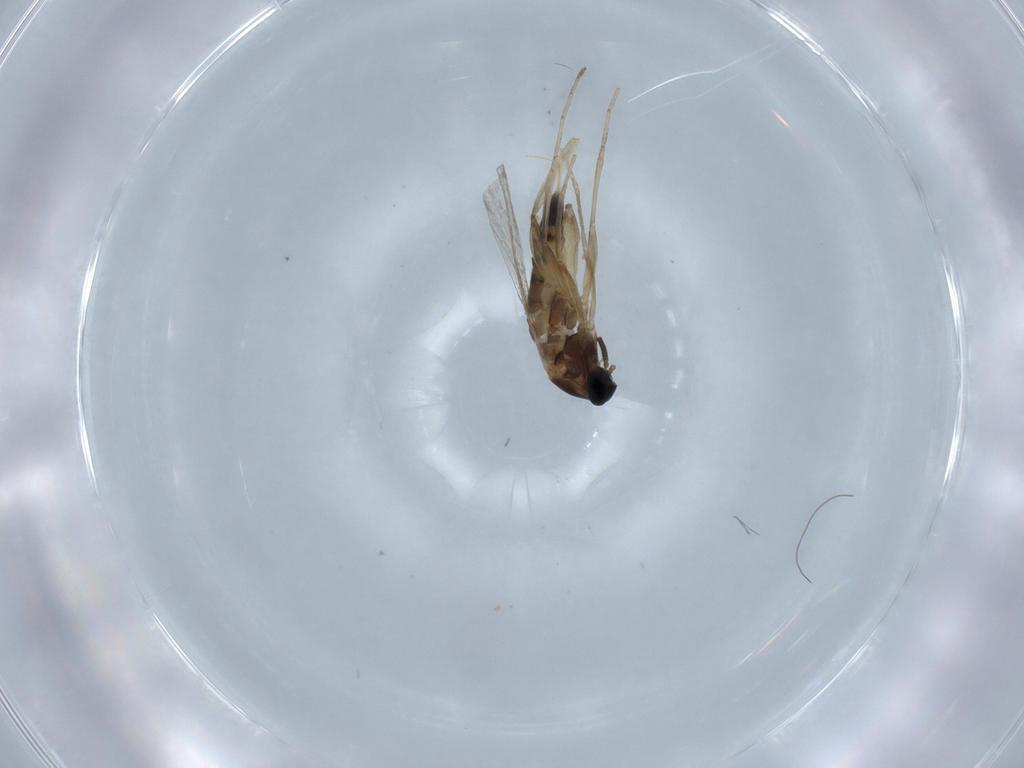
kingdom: Animalia
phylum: Arthropoda
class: Insecta
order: Diptera
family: Cecidomyiidae
